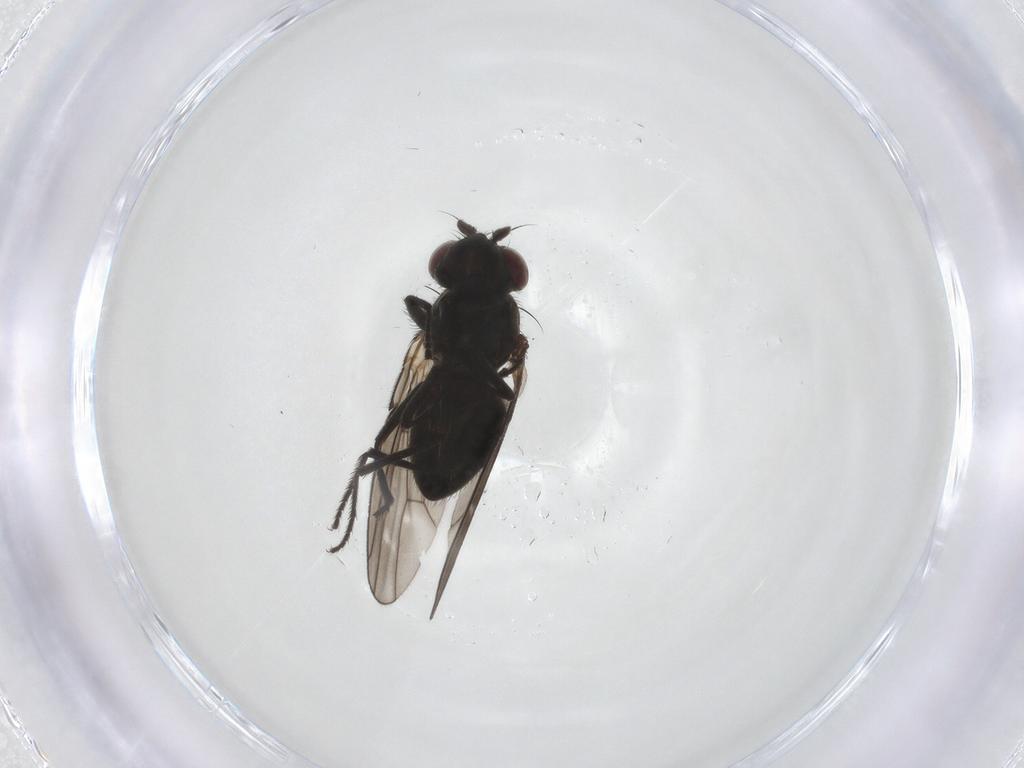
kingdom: Animalia
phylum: Arthropoda
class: Insecta
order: Diptera
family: Ephydridae
